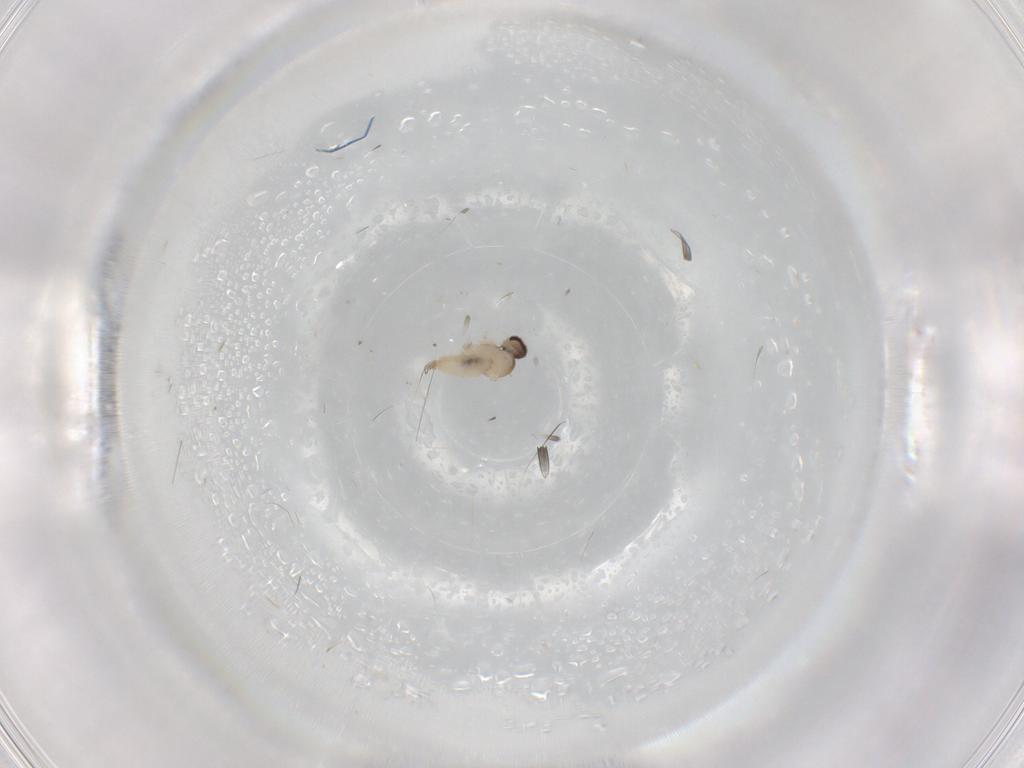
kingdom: Animalia
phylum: Arthropoda
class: Insecta
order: Diptera
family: Cecidomyiidae
